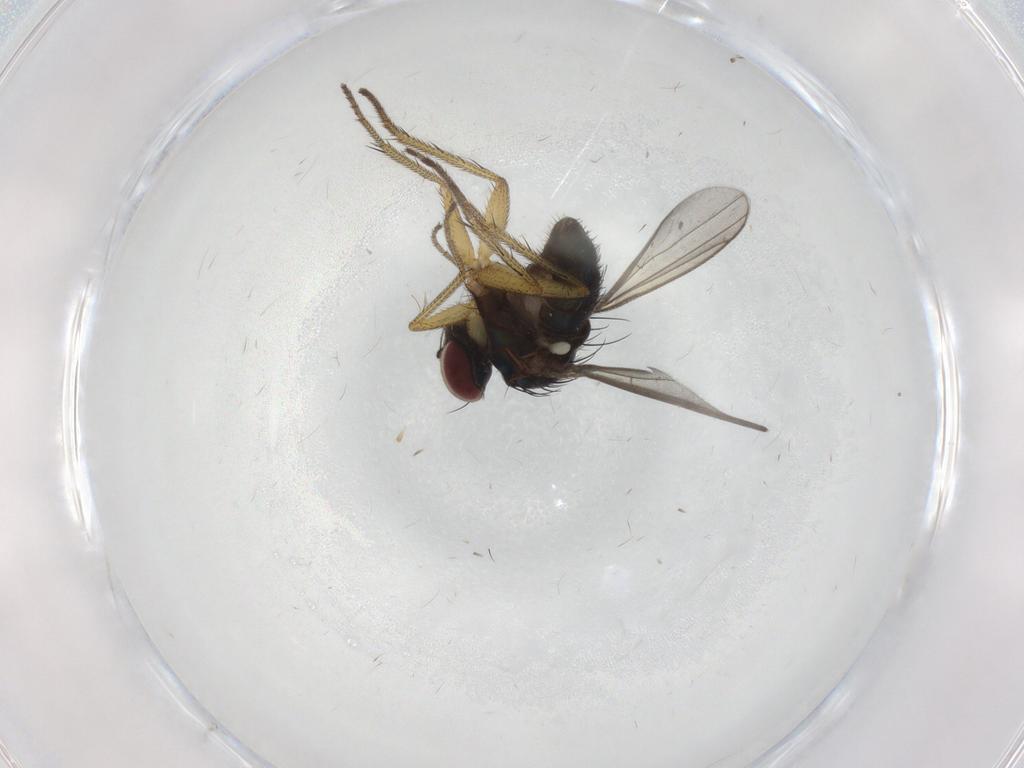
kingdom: Animalia
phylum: Arthropoda
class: Insecta
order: Diptera
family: Dolichopodidae
